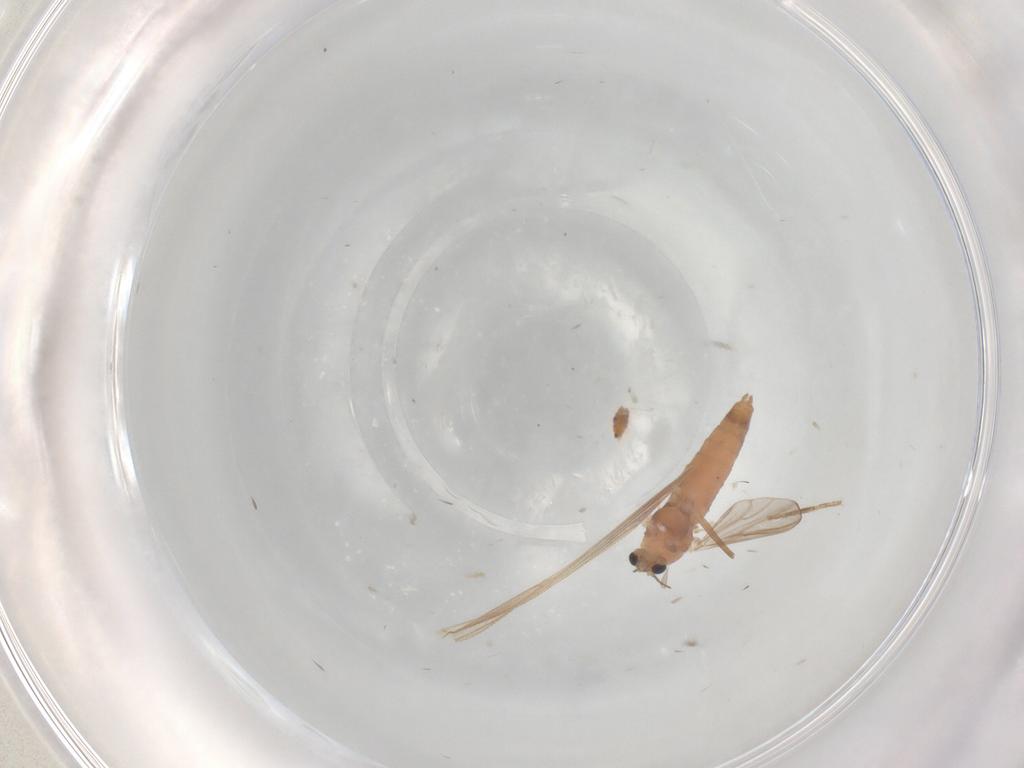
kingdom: Animalia
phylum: Arthropoda
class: Insecta
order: Diptera
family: Chironomidae
